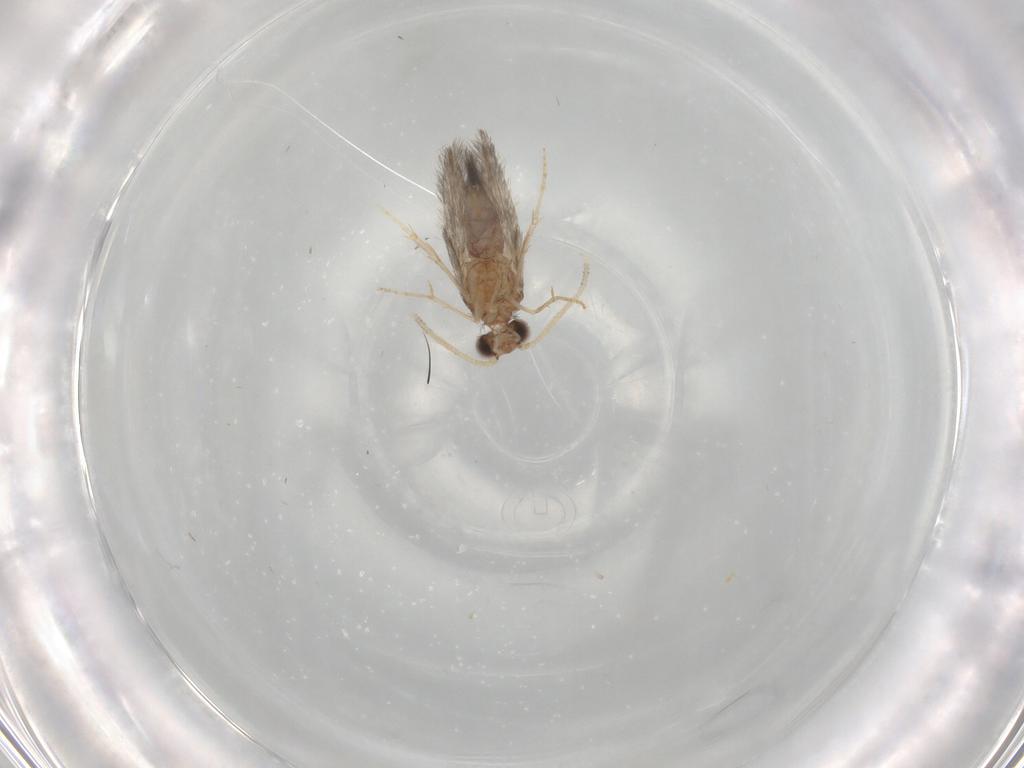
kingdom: Animalia
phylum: Arthropoda
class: Insecta
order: Trichoptera
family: Hydroptilidae
